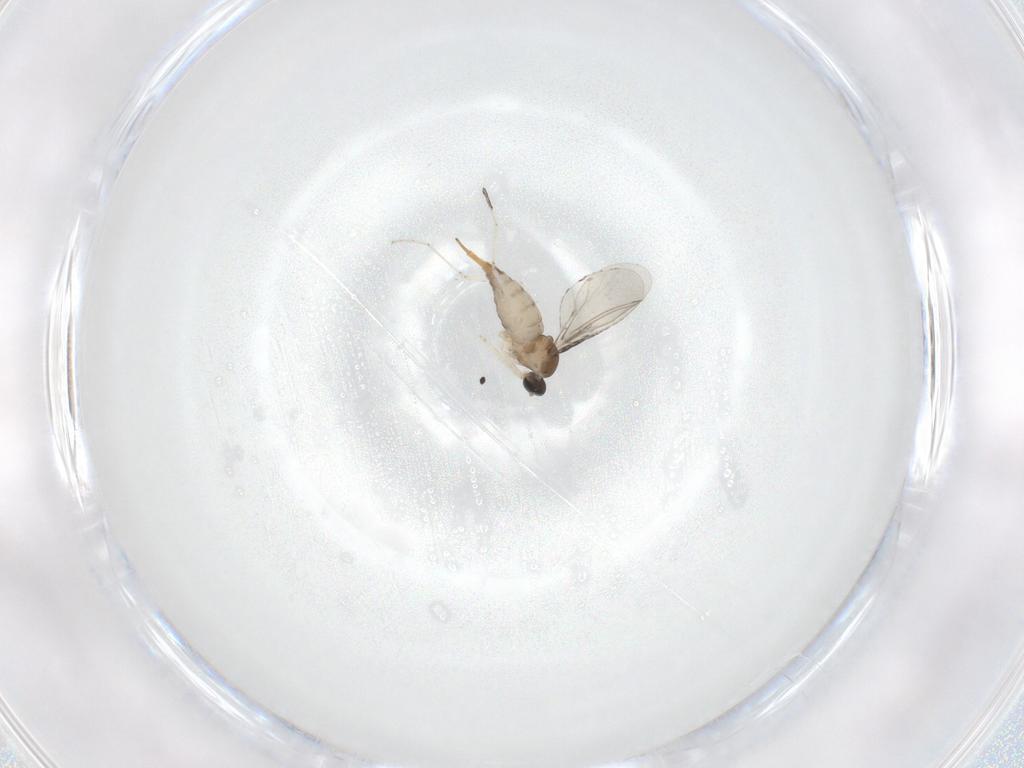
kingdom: Animalia
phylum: Arthropoda
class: Insecta
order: Diptera
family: Cecidomyiidae
